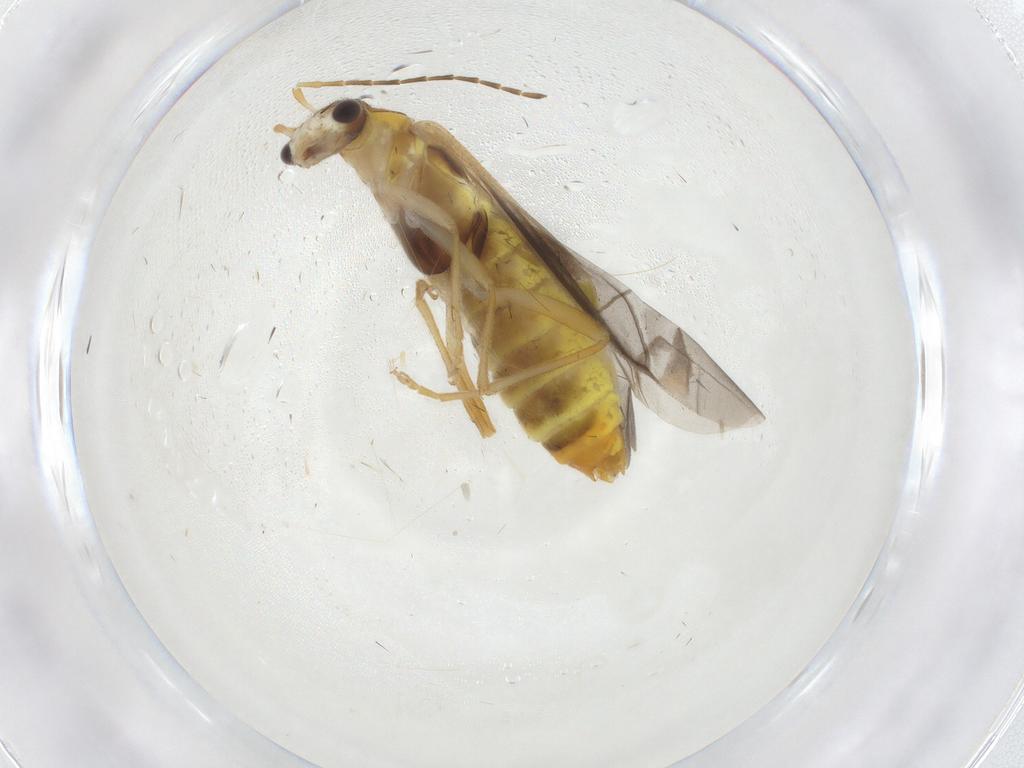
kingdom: Animalia
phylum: Arthropoda
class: Insecta
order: Coleoptera
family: Cantharidae
